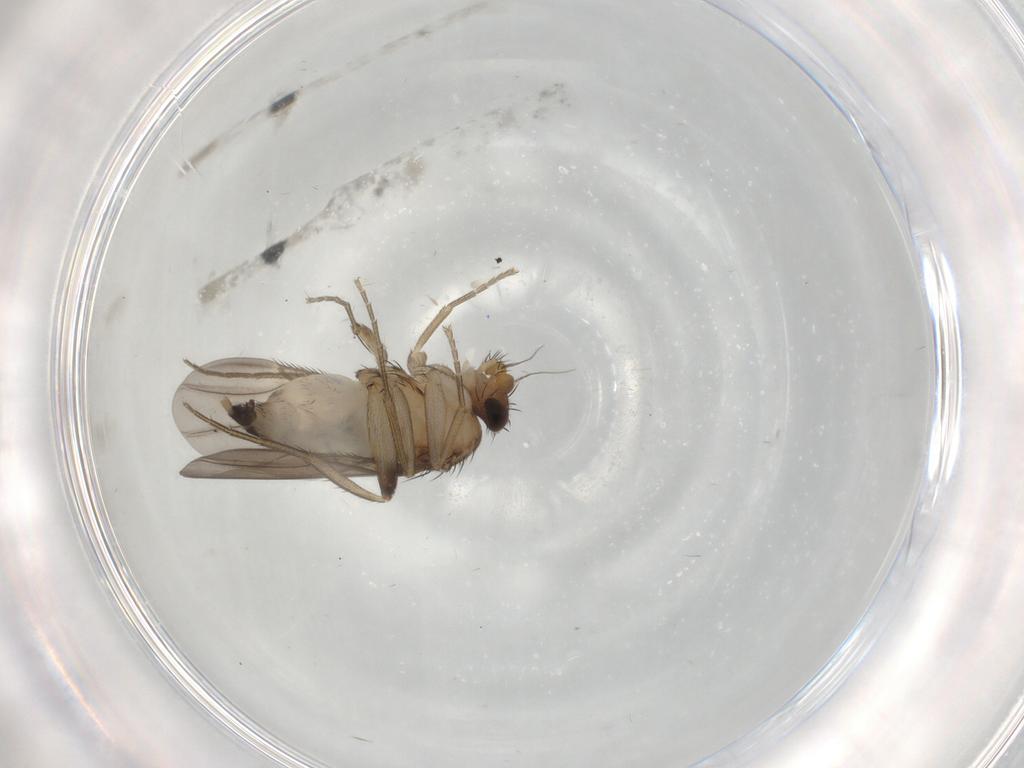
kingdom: Animalia
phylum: Arthropoda
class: Insecta
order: Diptera
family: Phoridae
